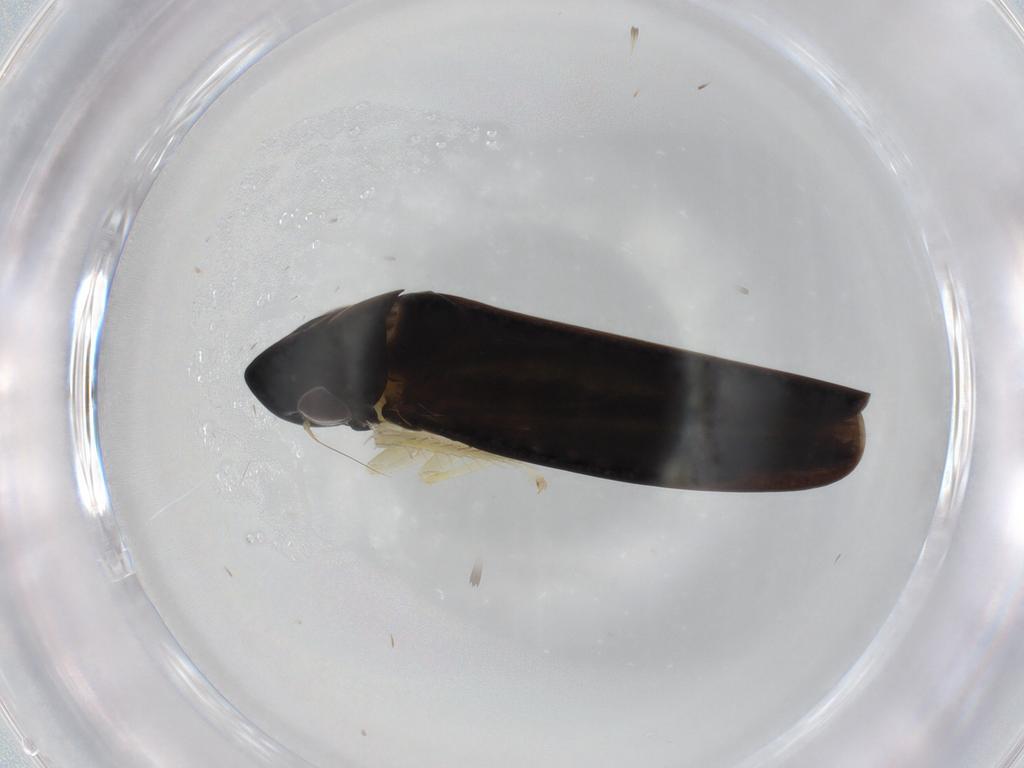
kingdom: Animalia
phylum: Arthropoda
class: Insecta
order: Hemiptera
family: Cicadellidae
